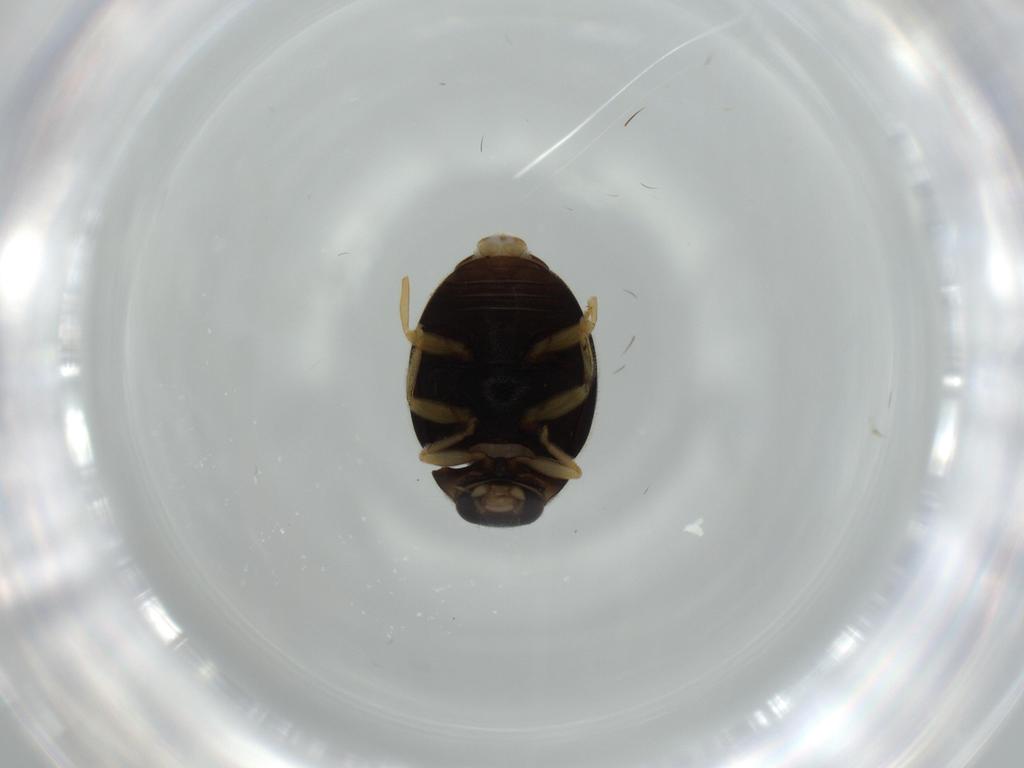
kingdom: Animalia
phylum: Arthropoda
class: Insecta
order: Coleoptera
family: Coccinellidae
